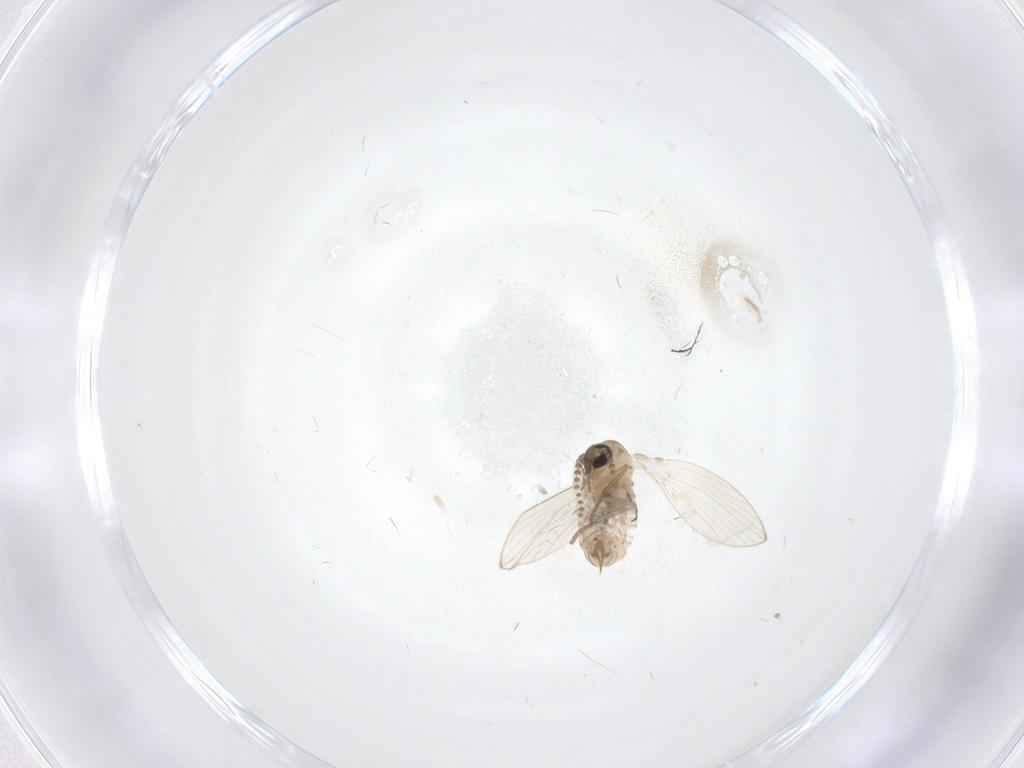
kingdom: Animalia
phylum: Arthropoda
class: Insecta
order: Diptera
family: Psychodidae
